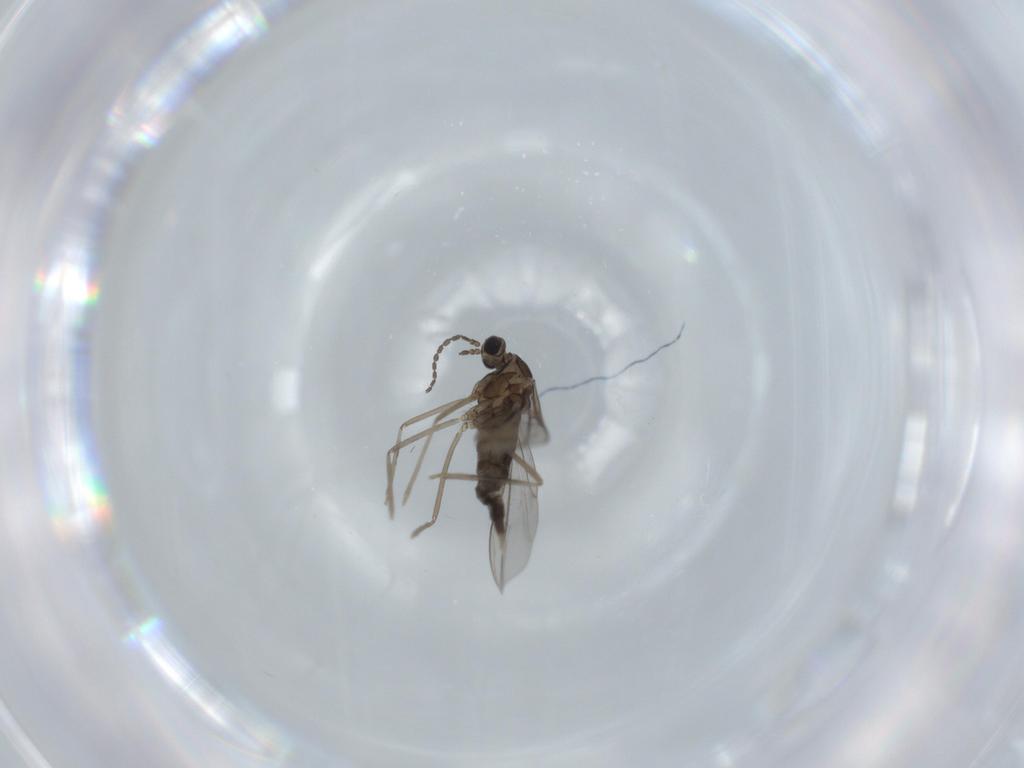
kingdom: Animalia
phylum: Arthropoda
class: Insecta
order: Diptera
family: Cecidomyiidae
